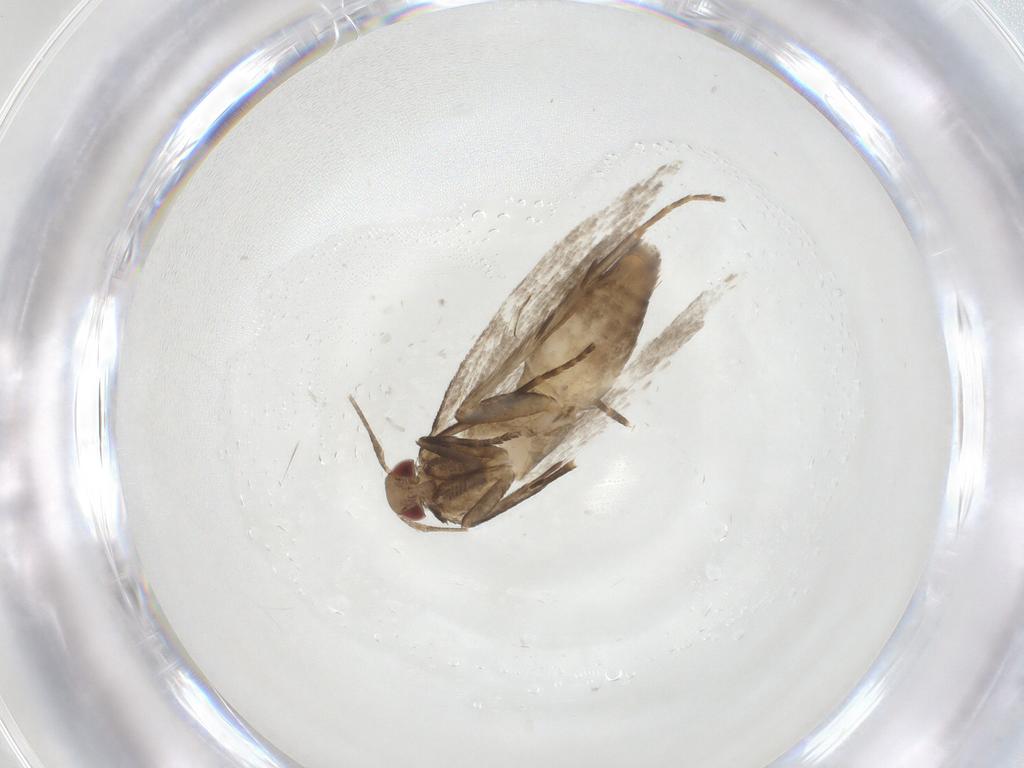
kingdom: Animalia
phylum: Arthropoda
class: Insecta
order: Lepidoptera
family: Gelechiidae
